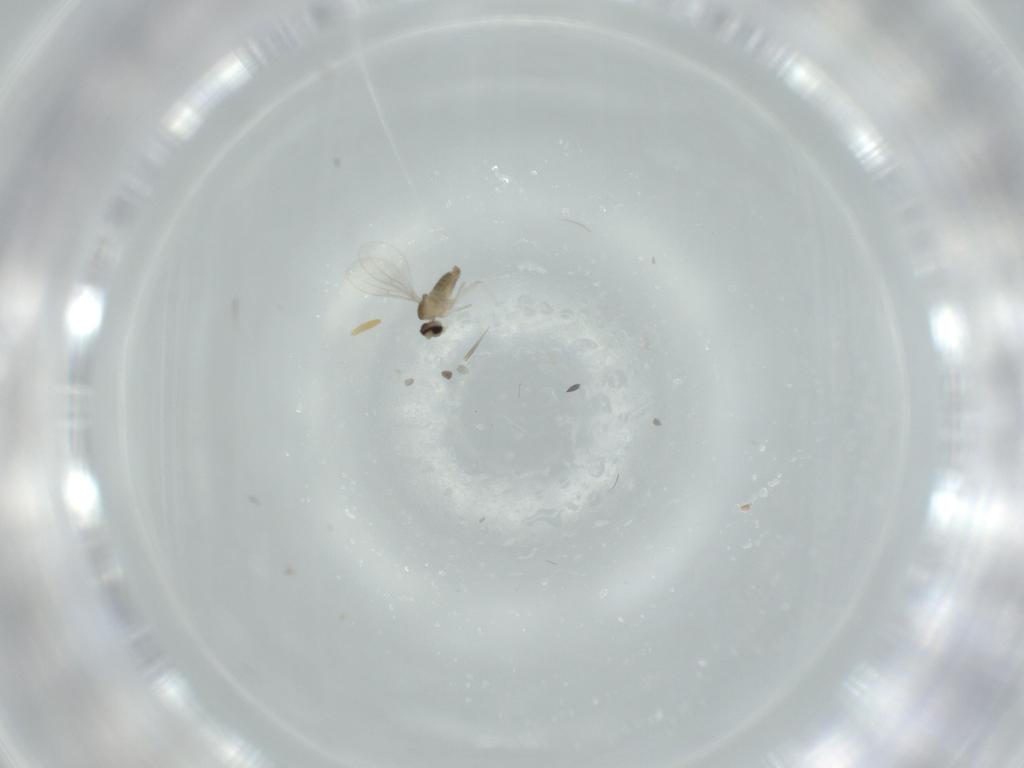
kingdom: Animalia
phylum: Arthropoda
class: Insecta
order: Diptera
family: Cecidomyiidae
